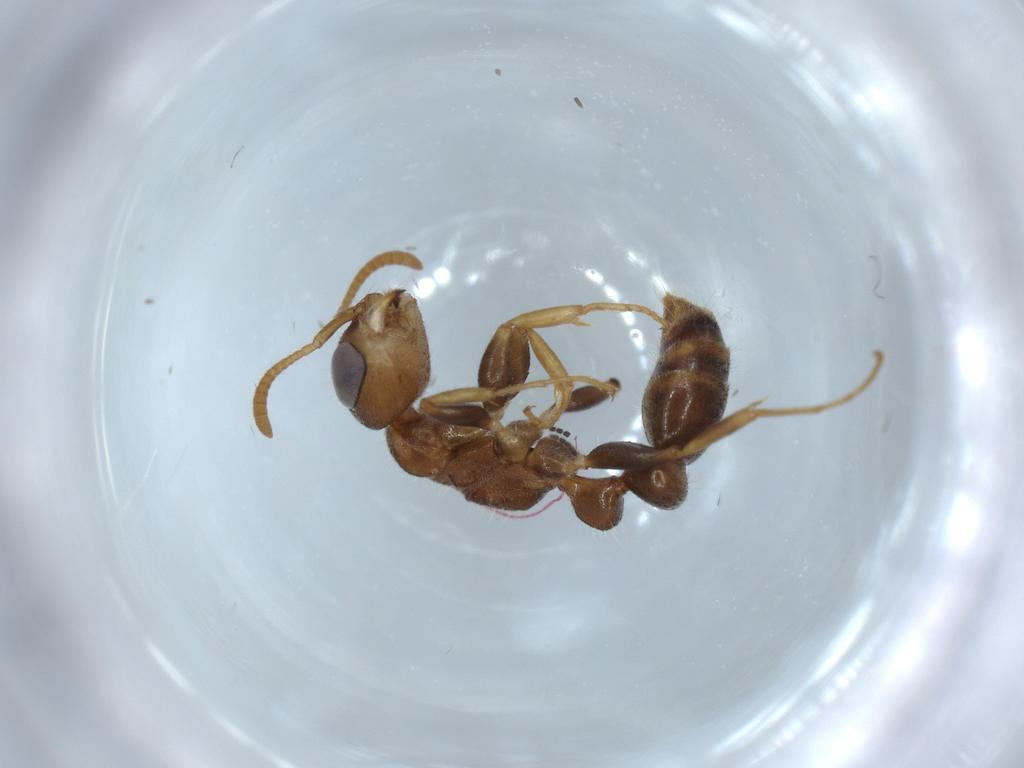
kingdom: Animalia
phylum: Arthropoda
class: Insecta
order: Hymenoptera
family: Formicidae
